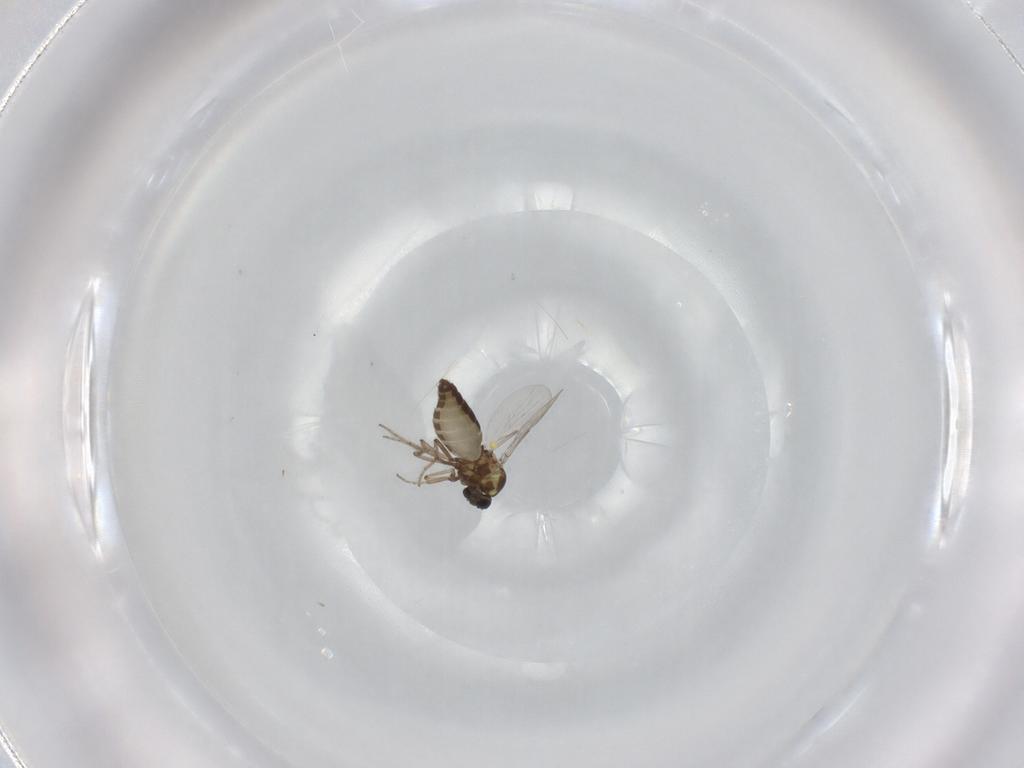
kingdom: Animalia
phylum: Arthropoda
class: Insecta
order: Diptera
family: Ceratopogonidae
